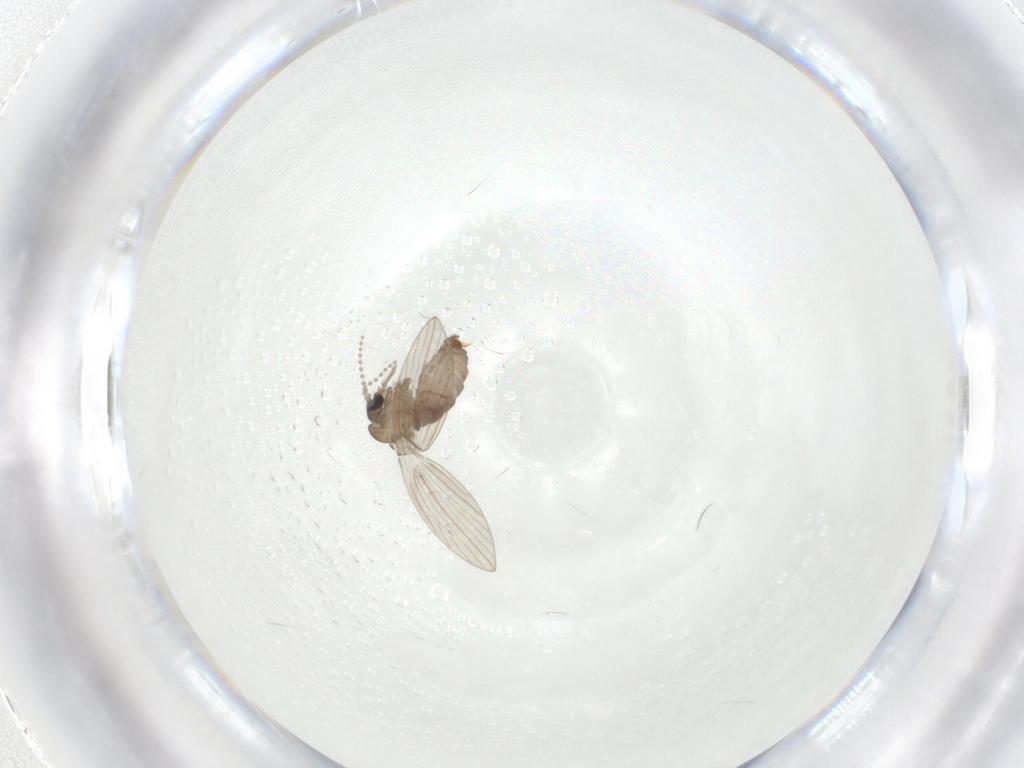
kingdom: Animalia
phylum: Arthropoda
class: Insecta
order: Diptera
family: Psychodidae
